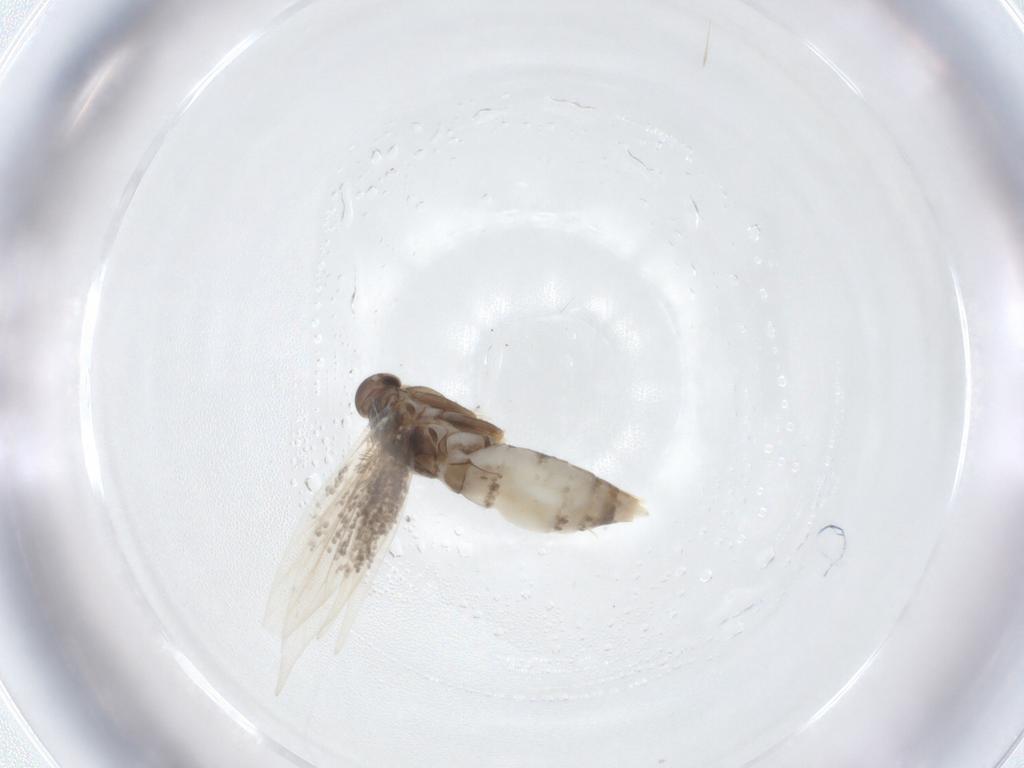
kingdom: Animalia
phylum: Arthropoda
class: Insecta
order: Lepidoptera
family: Elachistidae
